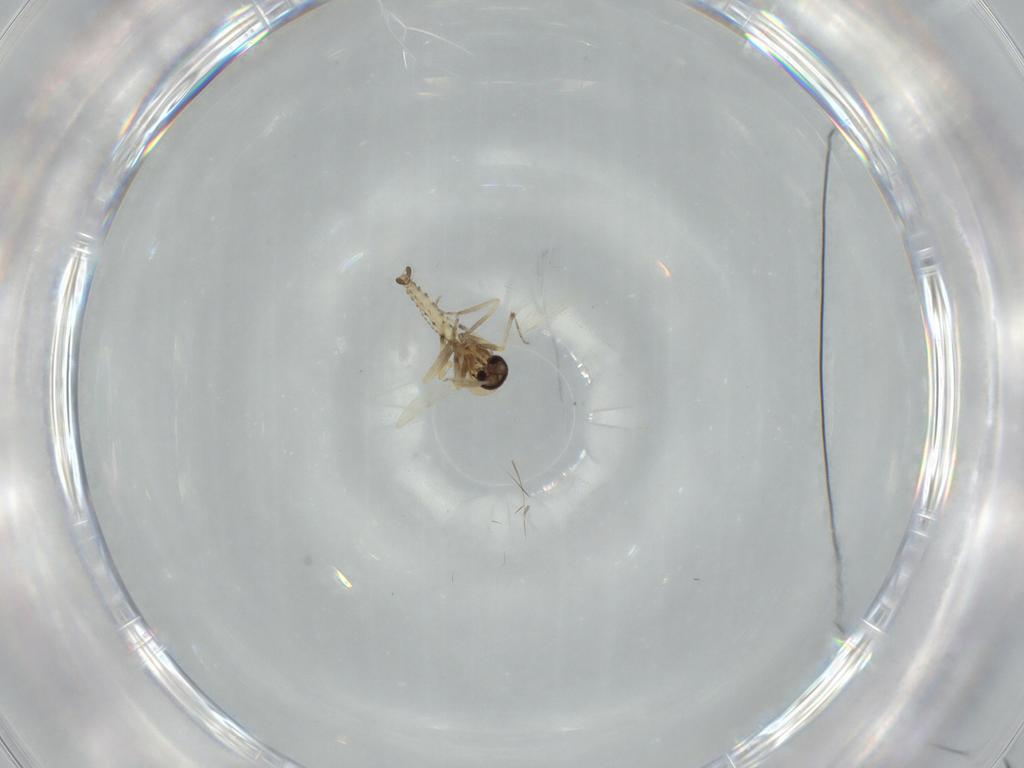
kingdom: Animalia
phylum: Arthropoda
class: Insecta
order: Diptera
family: Ceratopogonidae
